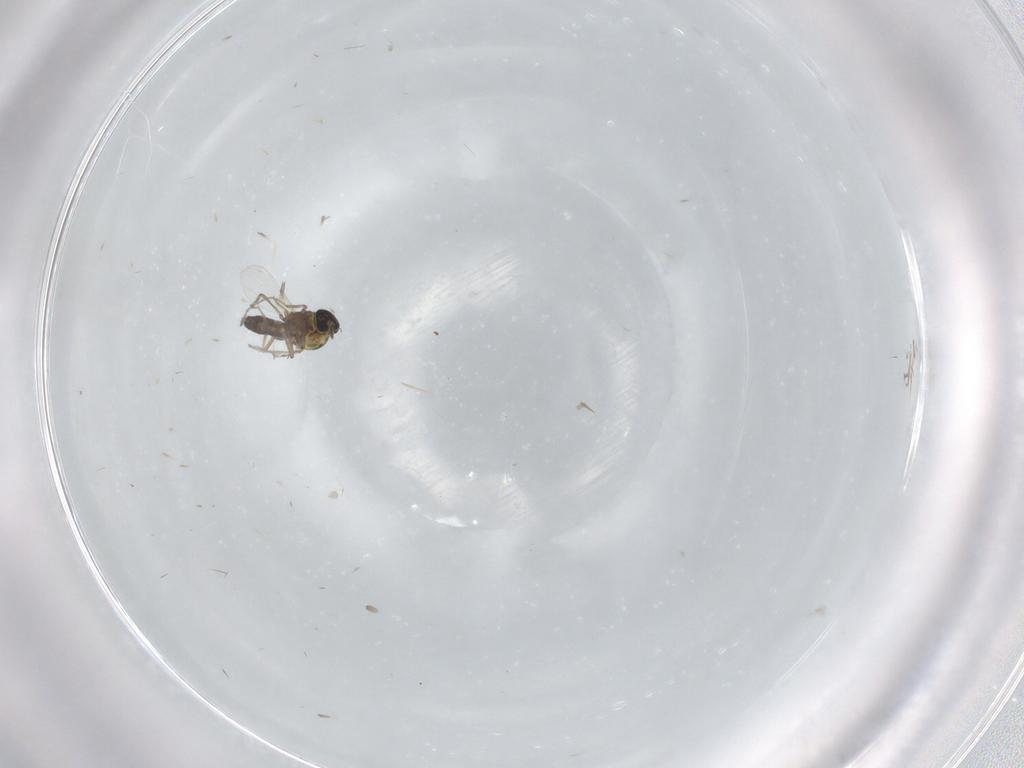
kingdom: Animalia
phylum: Arthropoda
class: Insecta
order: Diptera
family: Ceratopogonidae
